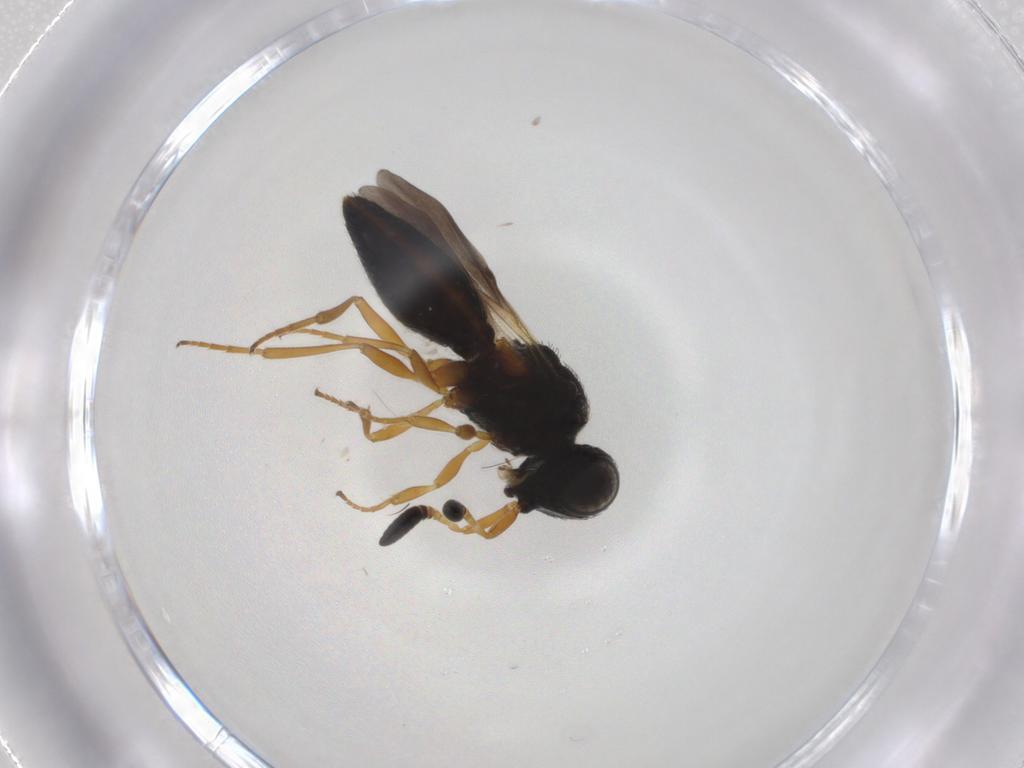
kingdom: Animalia
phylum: Arthropoda
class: Insecta
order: Hymenoptera
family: Scelionidae
